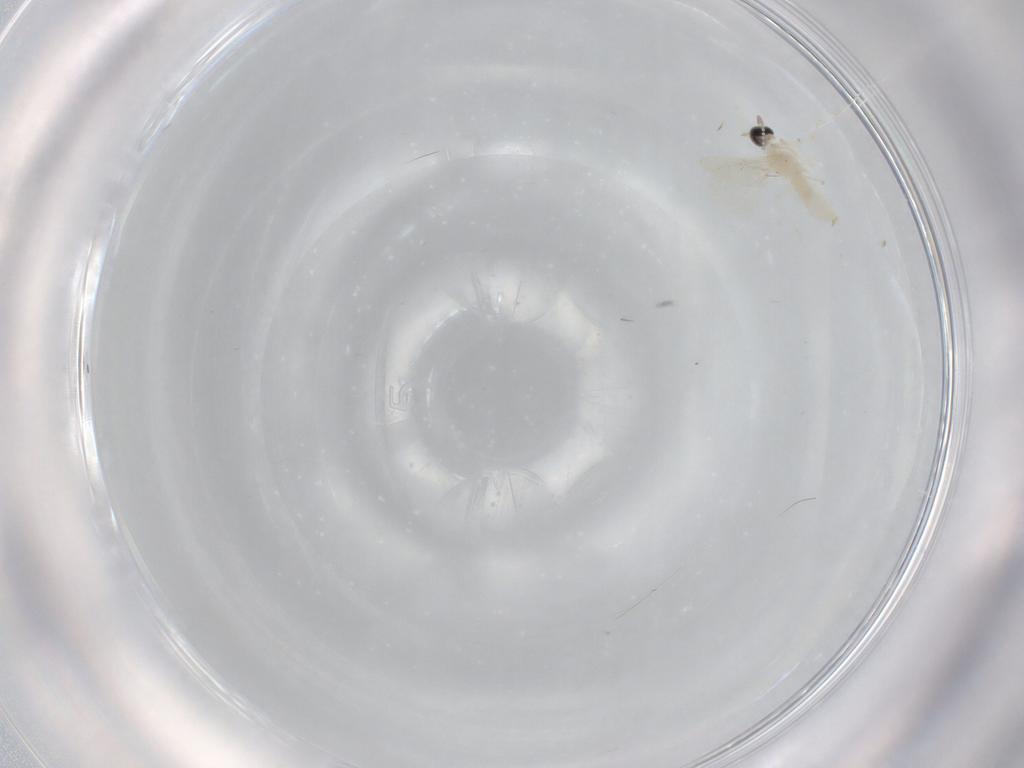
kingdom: Animalia
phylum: Arthropoda
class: Insecta
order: Diptera
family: Cecidomyiidae
